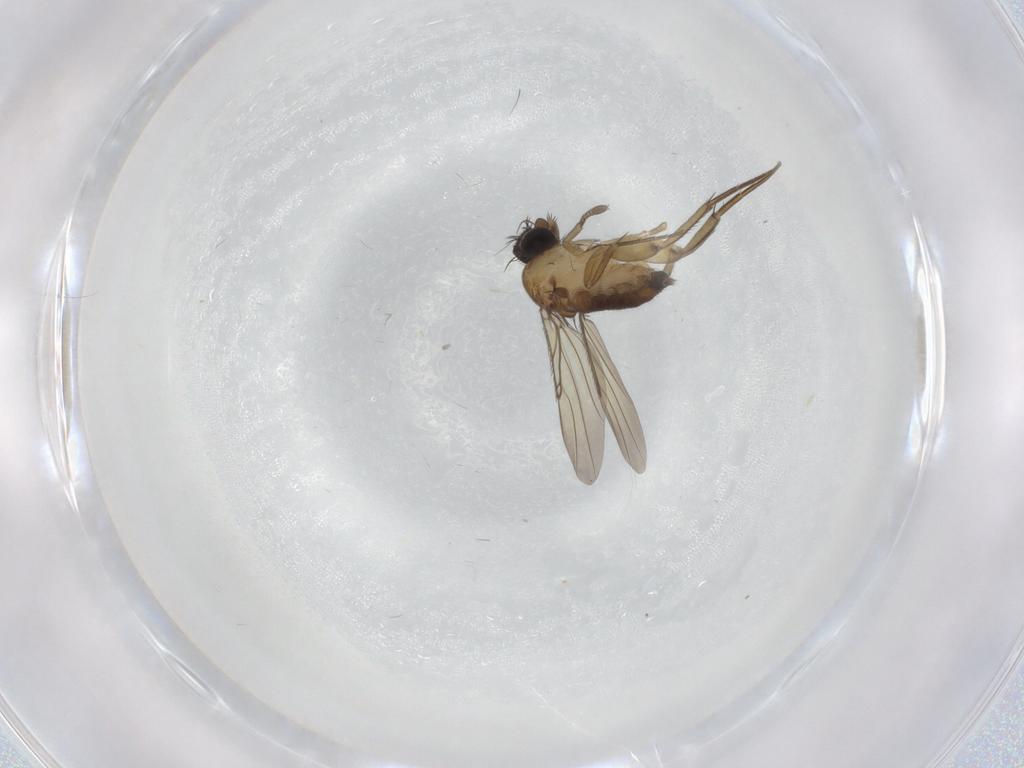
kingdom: Animalia
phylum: Arthropoda
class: Insecta
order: Diptera
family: Phoridae
